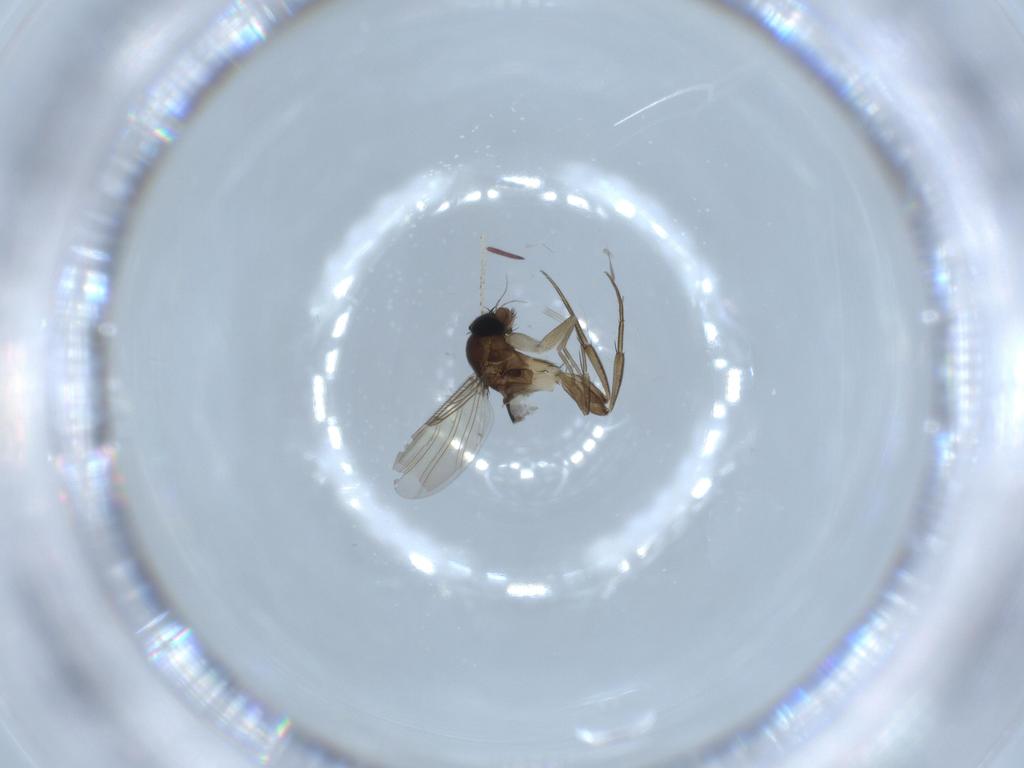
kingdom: Animalia
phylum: Arthropoda
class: Insecta
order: Diptera
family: Phoridae
